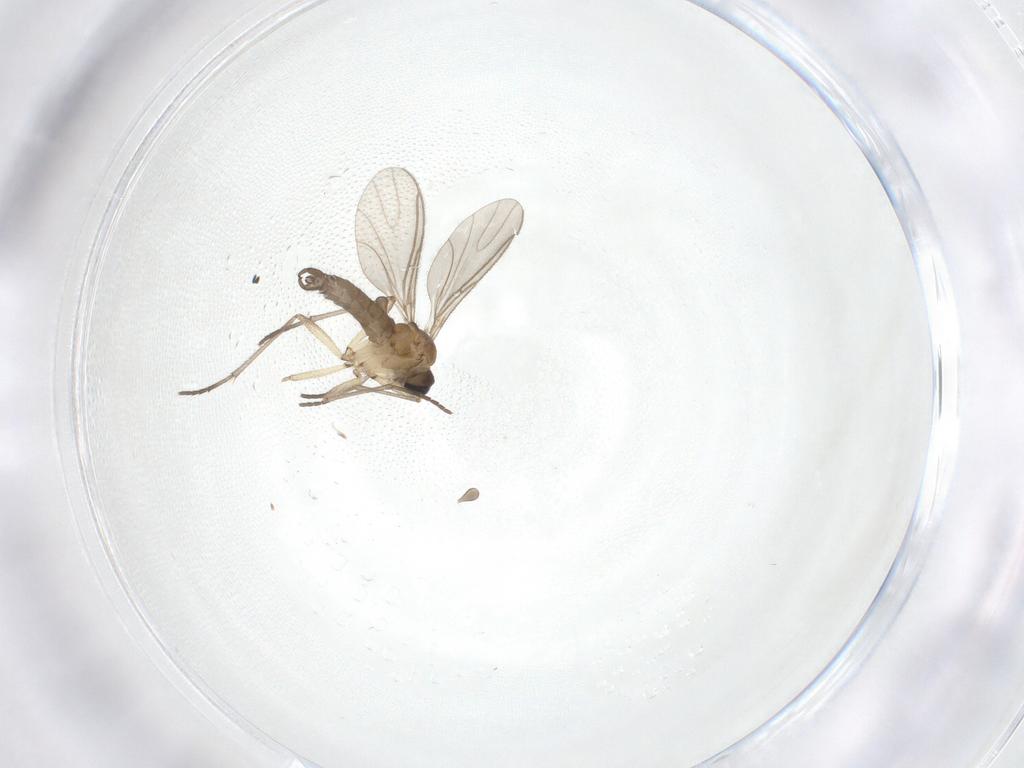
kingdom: Animalia
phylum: Arthropoda
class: Insecta
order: Diptera
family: Sciaridae
